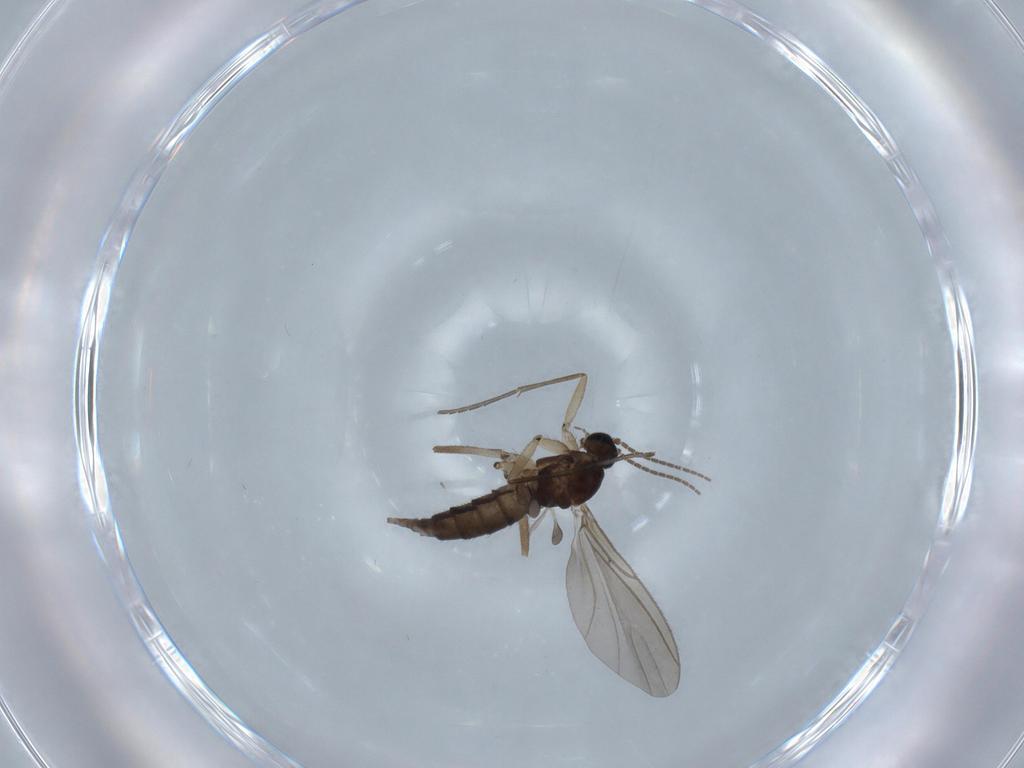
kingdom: Animalia
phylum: Arthropoda
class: Insecta
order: Diptera
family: Sciaridae
